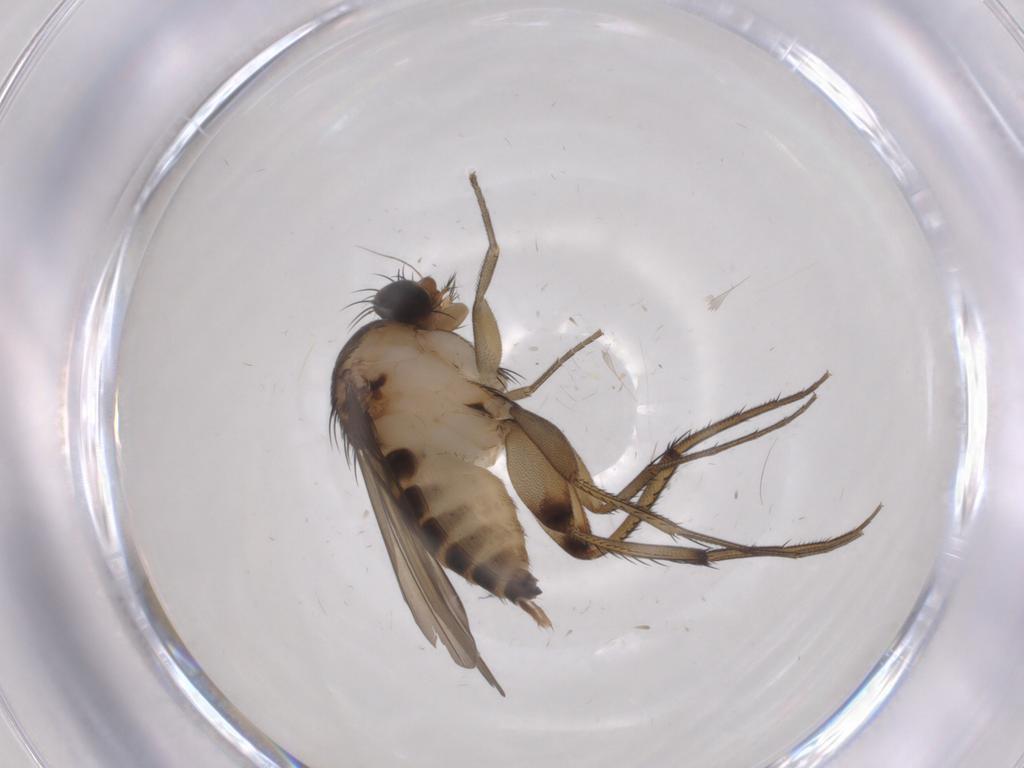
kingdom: Animalia
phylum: Arthropoda
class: Insecta
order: Diptera
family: Phoridae
